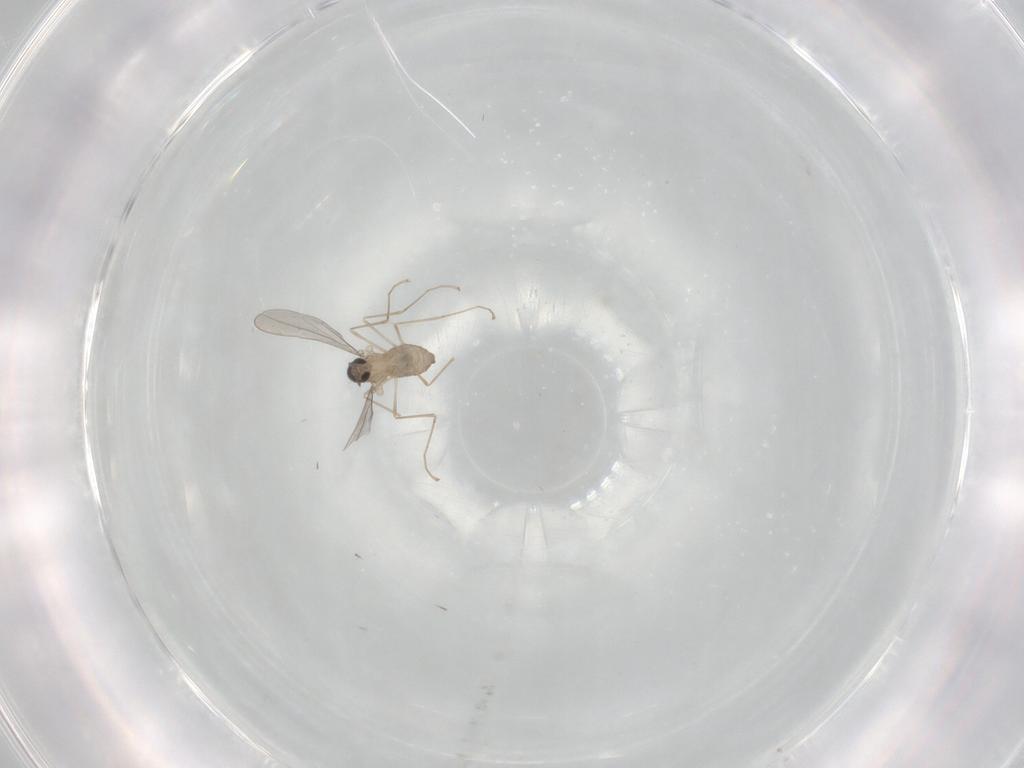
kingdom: Animalia
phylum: Arthropoda
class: Insecta
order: Diptera
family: Cecidomyiidae
